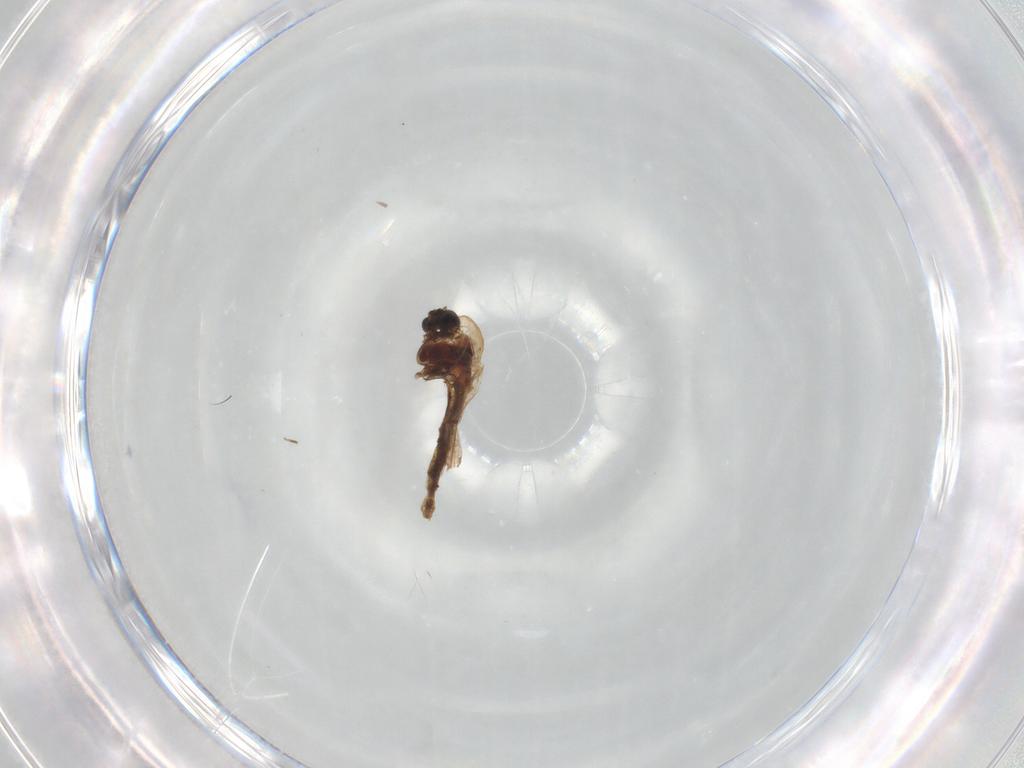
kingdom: Animalia
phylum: Arthropoda
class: Insecta
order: Diptera
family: Chironomidae
